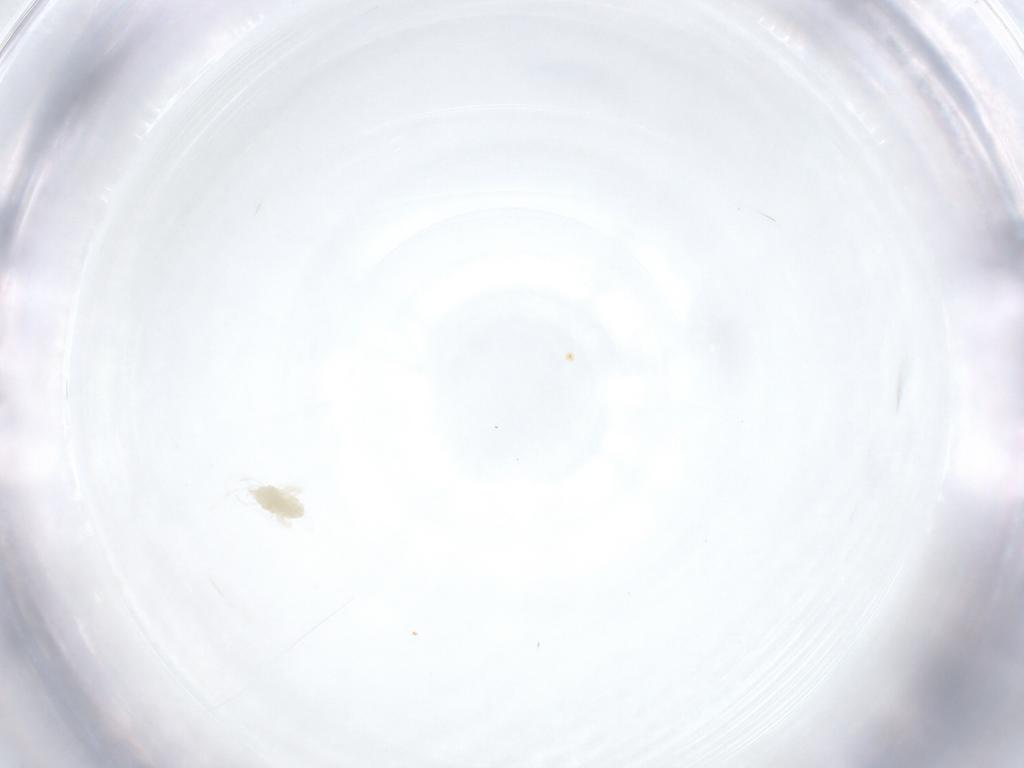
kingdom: Animalia
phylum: Arthropoda
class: Arachnida
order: Trombidiformes
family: Eupodidae
